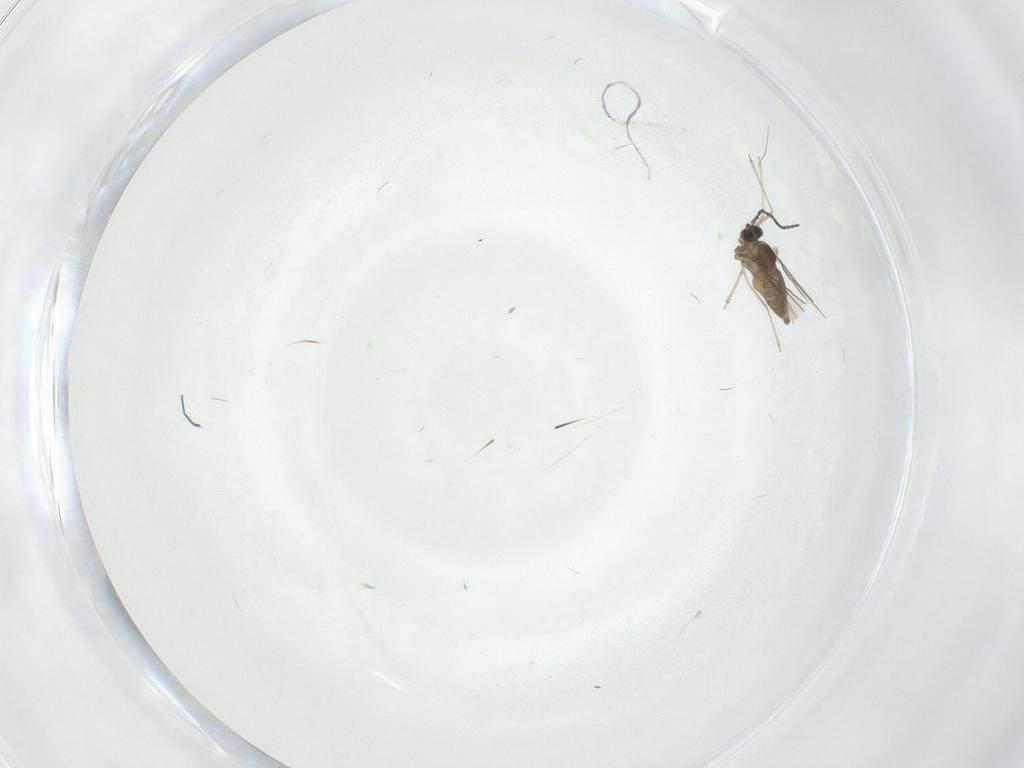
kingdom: Animalia
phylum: Arthropoda
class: Insecta
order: Diptera
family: Cecidomyiidae
